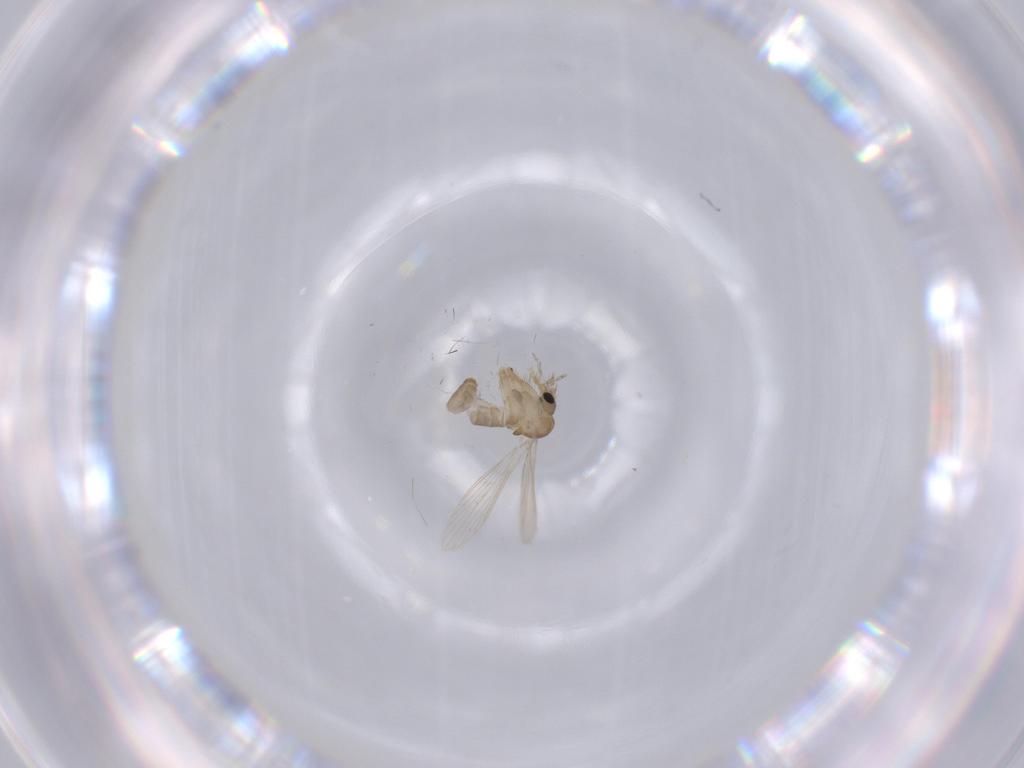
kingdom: Animalia
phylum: Arthropoda
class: Insecta
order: Diptera
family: Psychodidae
